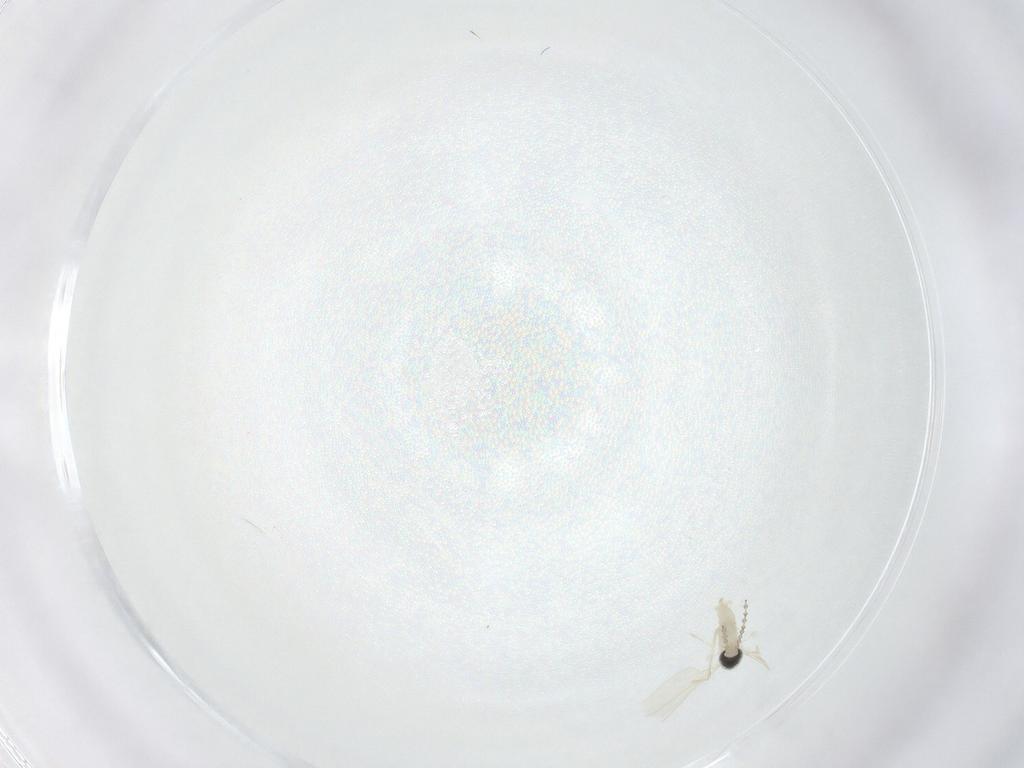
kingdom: Animalia
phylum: Arthropoda
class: Insecta
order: Diptera
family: Cecidomyiidae
